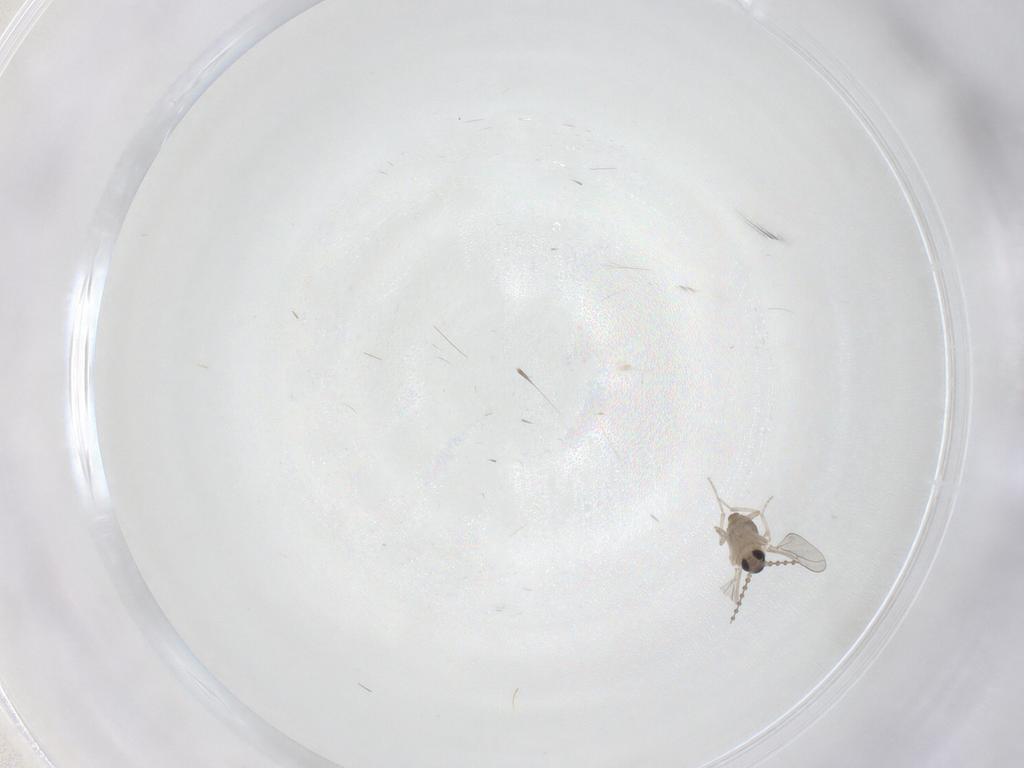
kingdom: Animalia
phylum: Arthropoda
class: Insecta
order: Diptera
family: Cecidomyiidae
